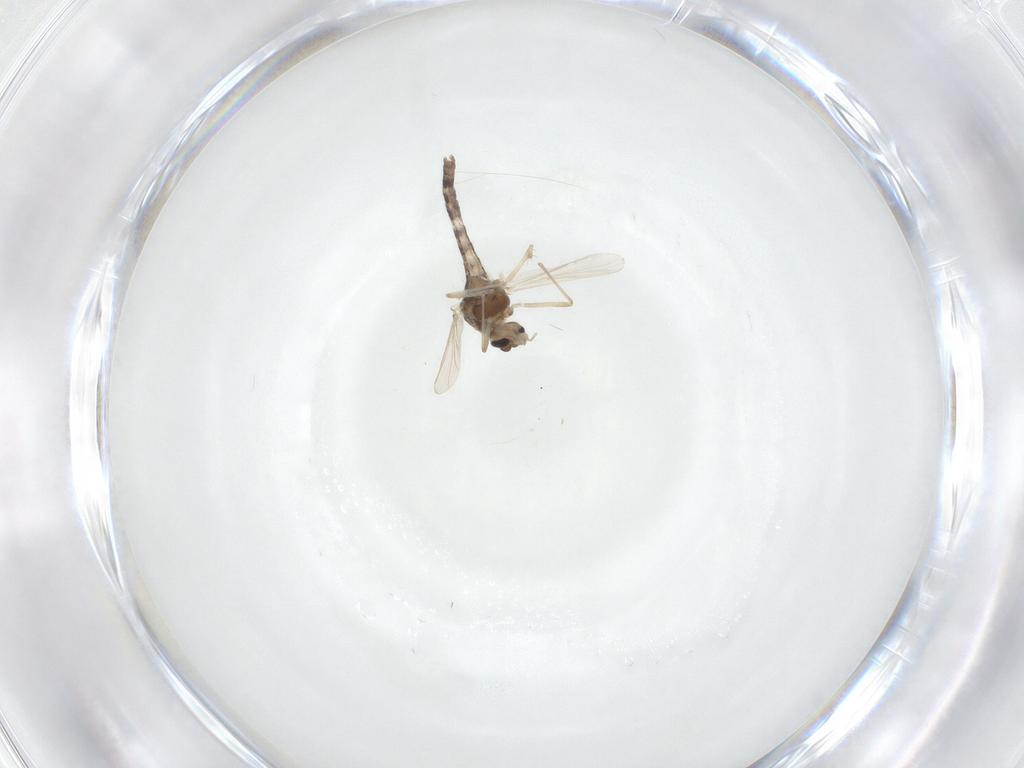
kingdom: Animalia
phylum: Arthropoda
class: Insecta
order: Diptera
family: Chironomidae
